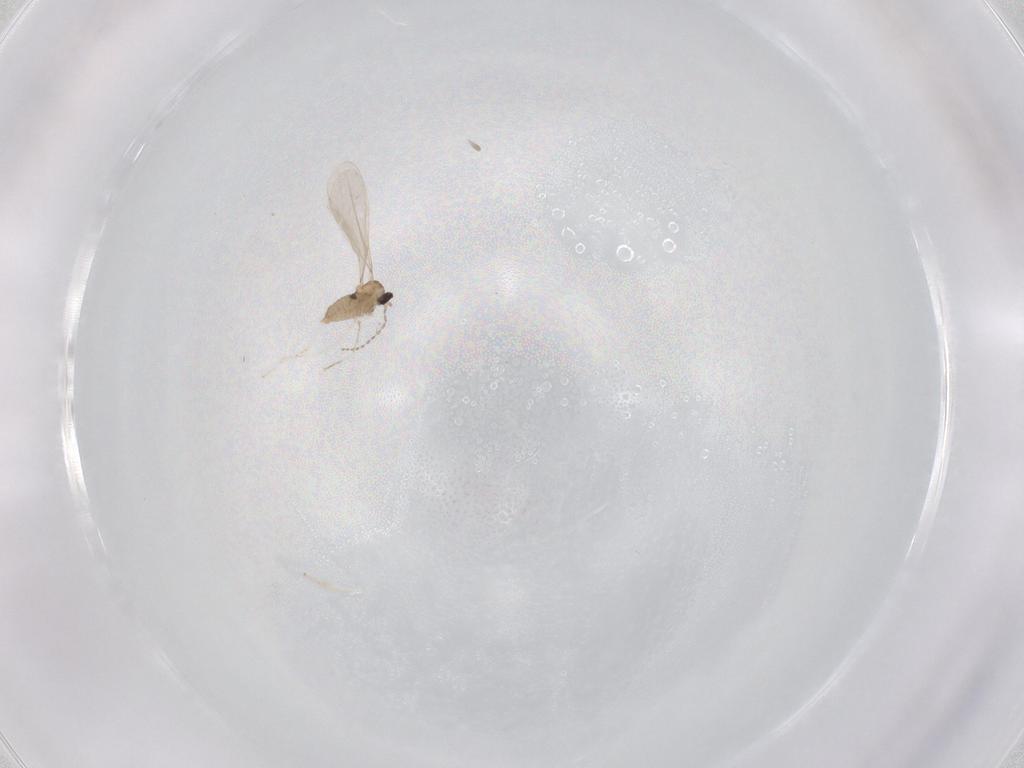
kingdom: Animalia
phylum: Arthropoda
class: Insecta
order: Diptera
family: Cecidomyiidae
